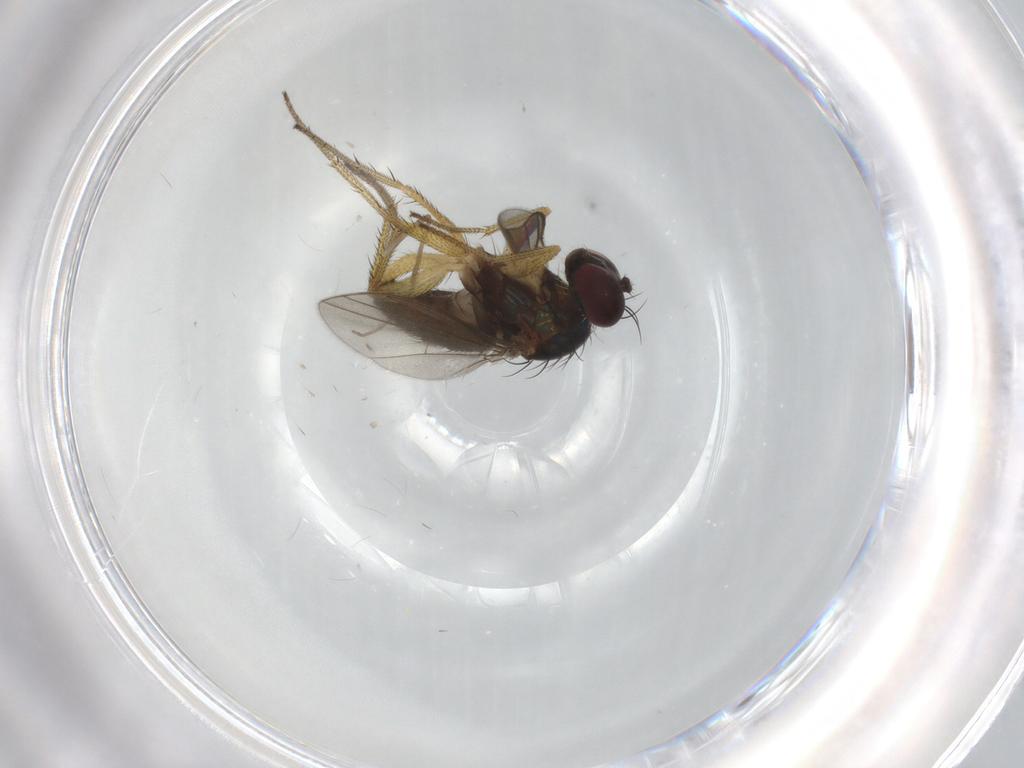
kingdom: Animalia
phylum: Arthropoda
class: Insecta
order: Diptera
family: Dolichopodidae
